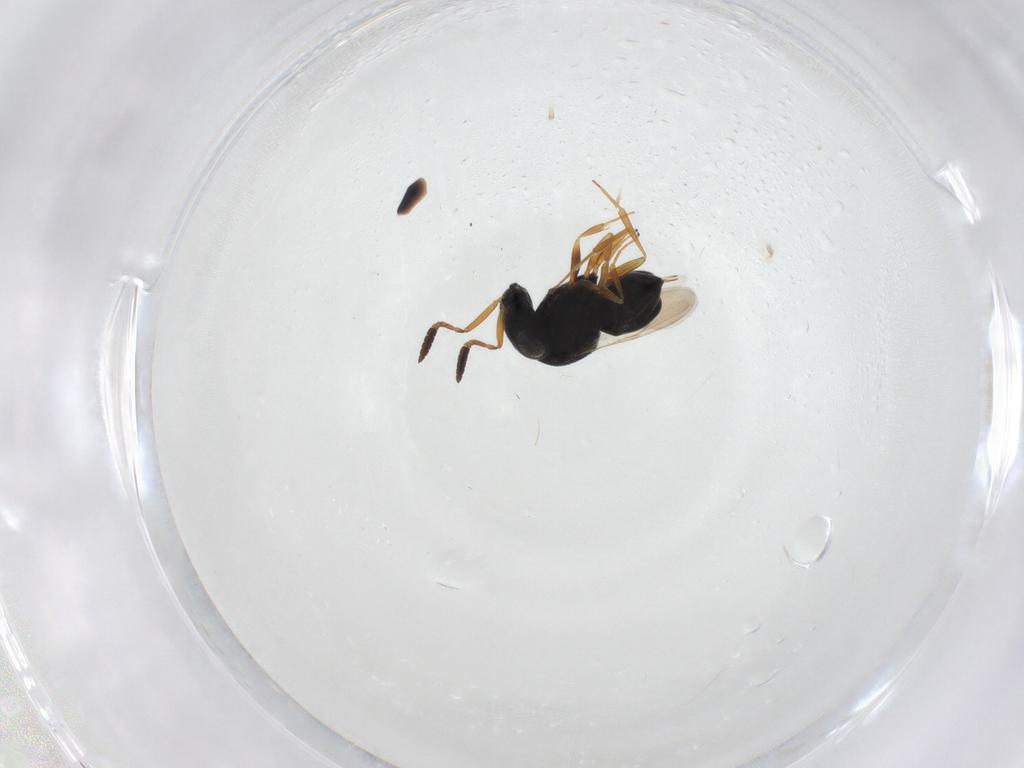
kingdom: Animalia
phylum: Arthropoda
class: Insecta
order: Hymenoptera
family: Scelionidae
